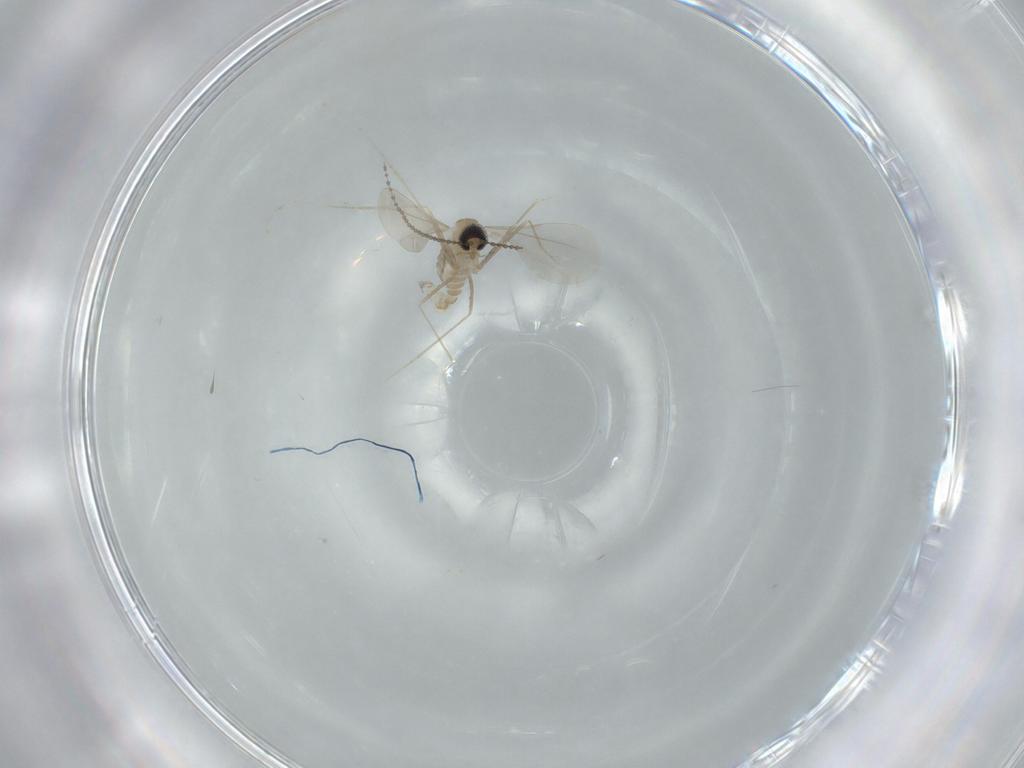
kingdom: Animalia
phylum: Arthropoda
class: Insecta
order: Diptera
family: Cecidomyiidae
